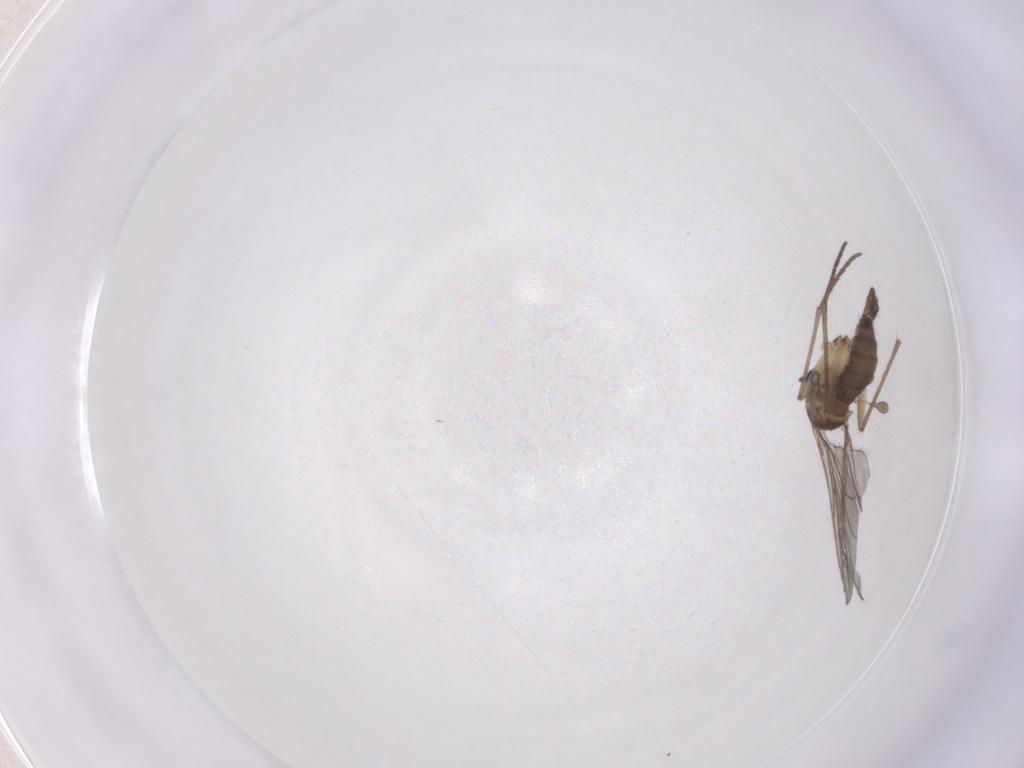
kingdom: Animalia
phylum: Arthropoda
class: Insecta
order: Diptera
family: Sciaridae
